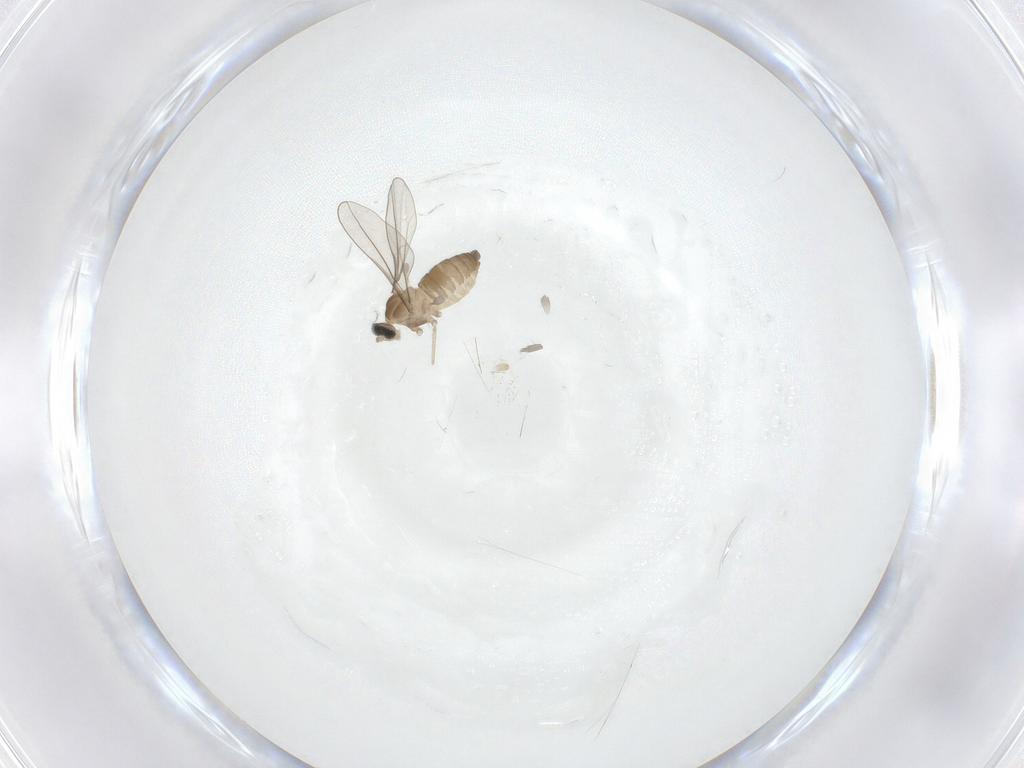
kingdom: Animalia
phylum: Arthropoda
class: Insecta
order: Diptera
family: Cecidomyiidae
